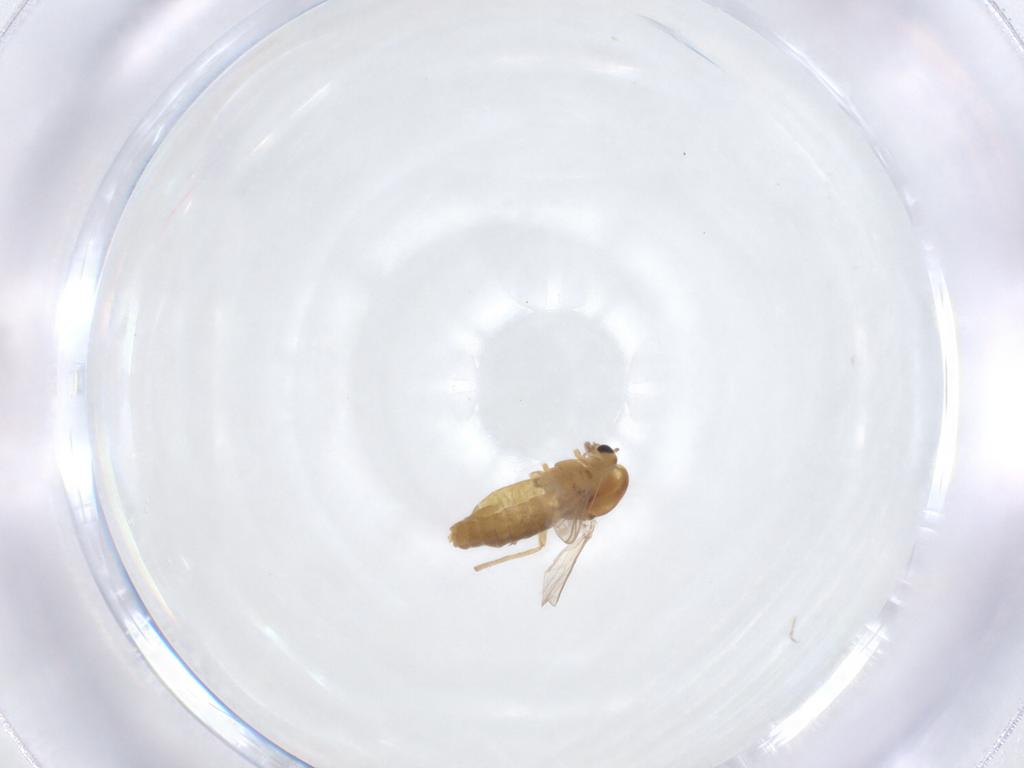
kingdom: Animalia
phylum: Arthropoda
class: Insecta
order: Diptera
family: Chironomidae
